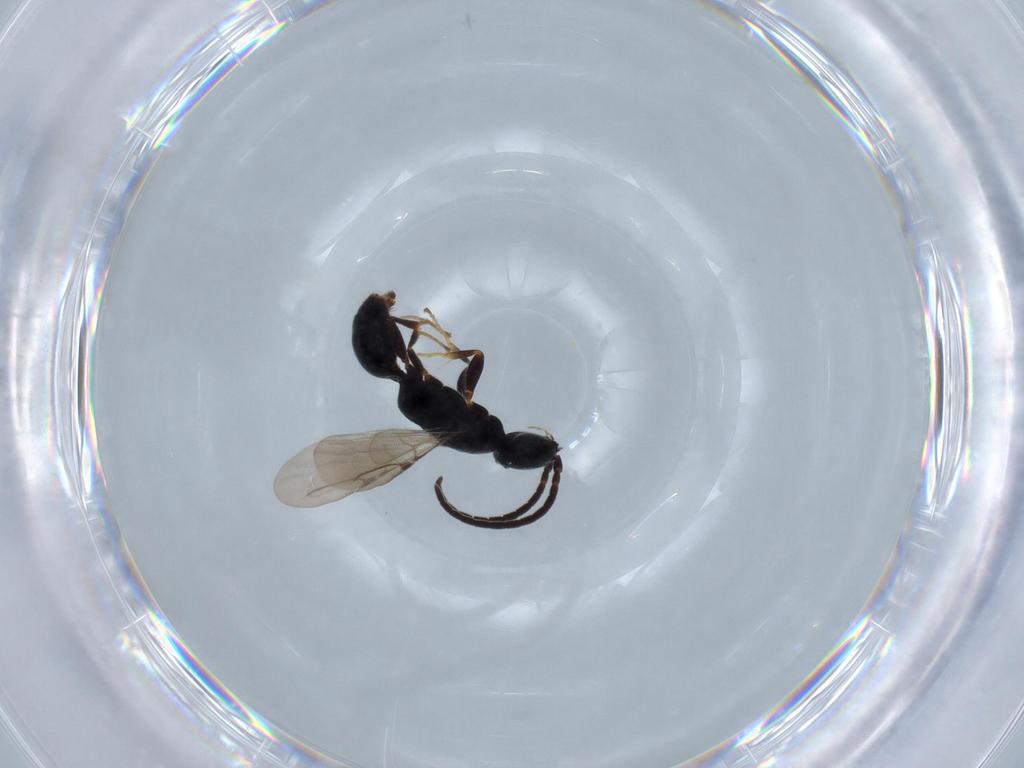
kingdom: Animalia
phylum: Arthropoda
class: Insecta
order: Hymenoptera
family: Bethylidae
